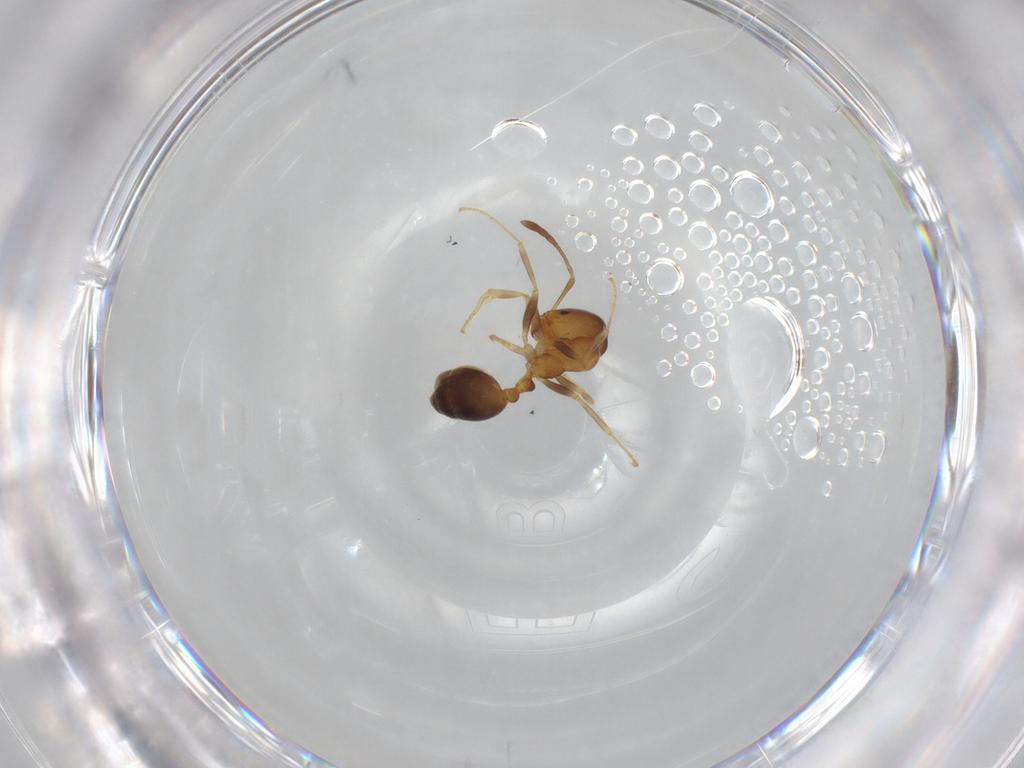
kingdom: Animalia
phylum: Arthropoda
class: Insecta
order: Hymenoptera
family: Formicidae
